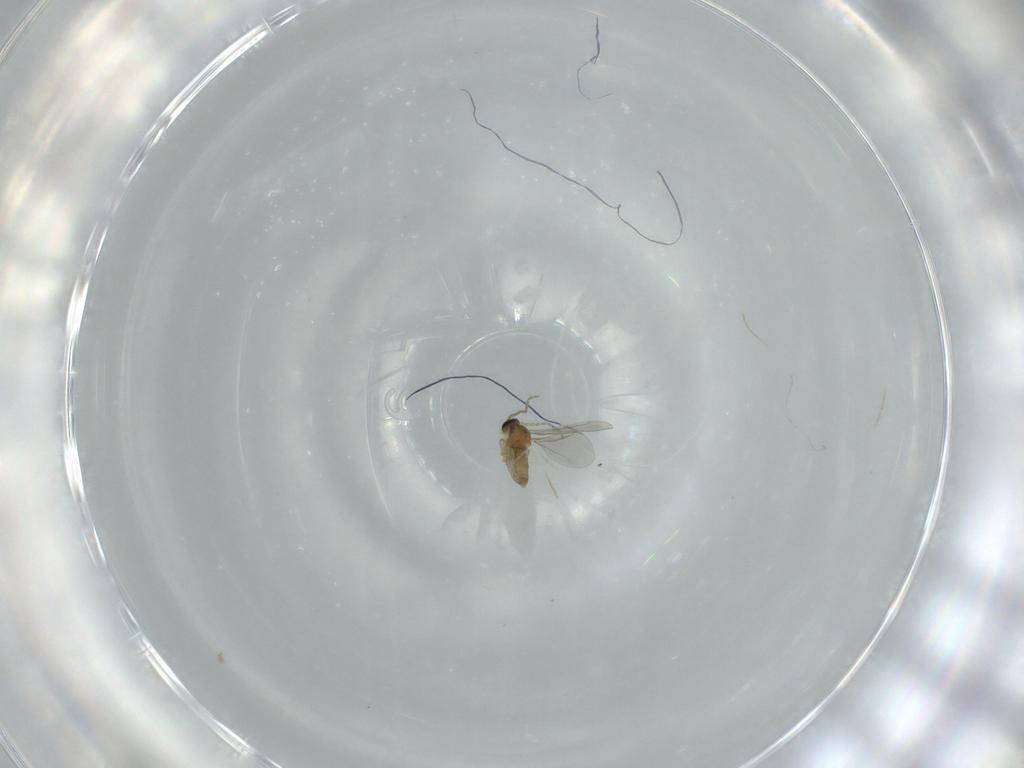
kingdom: Animalia
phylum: Arthropoda
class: Insecta
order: Diptera
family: Cecidomyiidae
